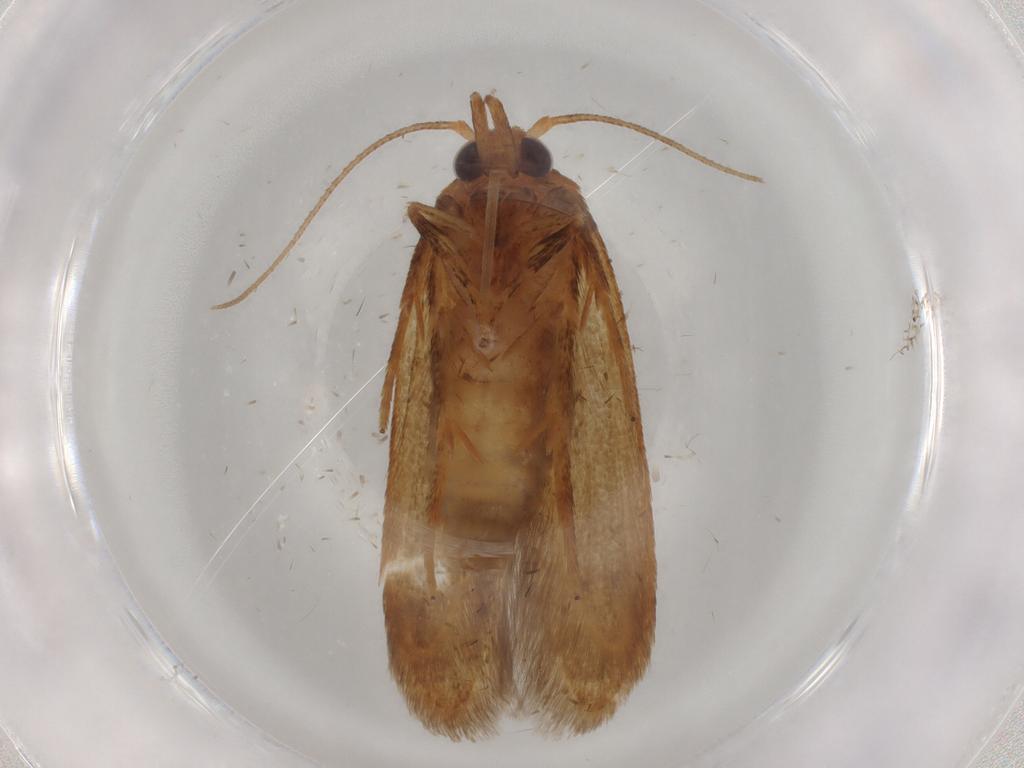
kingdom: Animalia
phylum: Arthropoda
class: Insecta
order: Lepidoptera
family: Blastobasidae
